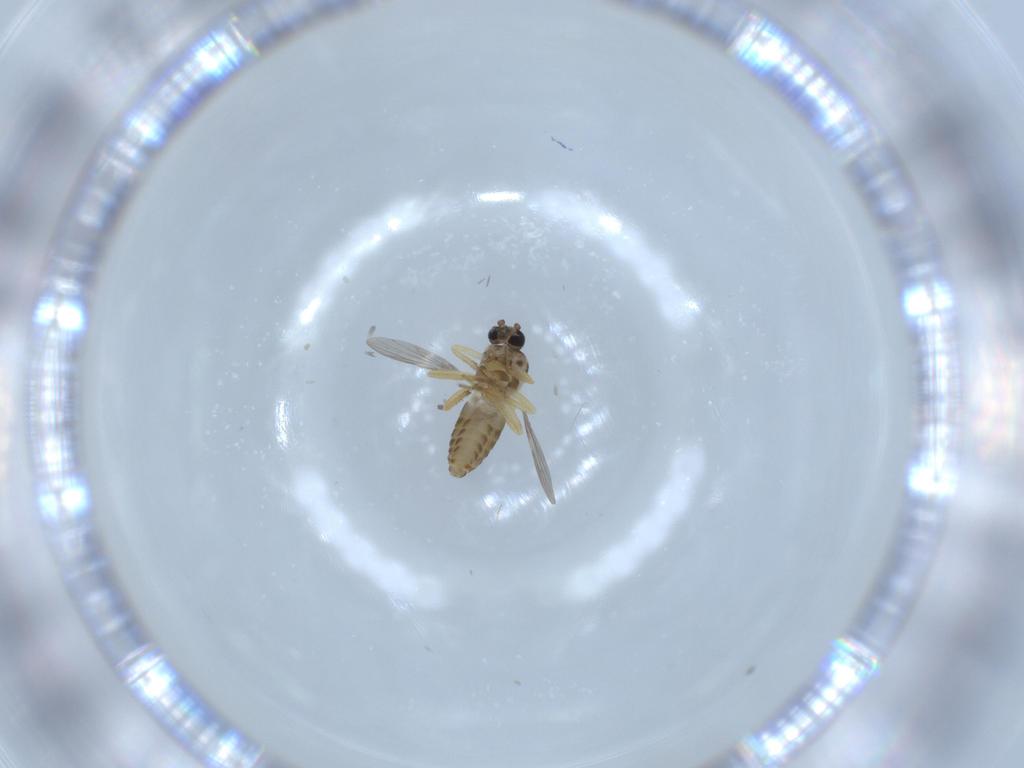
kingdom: Animalia
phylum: Arthropoda
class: Insecta
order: Diptera
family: Ceratopogonidae
